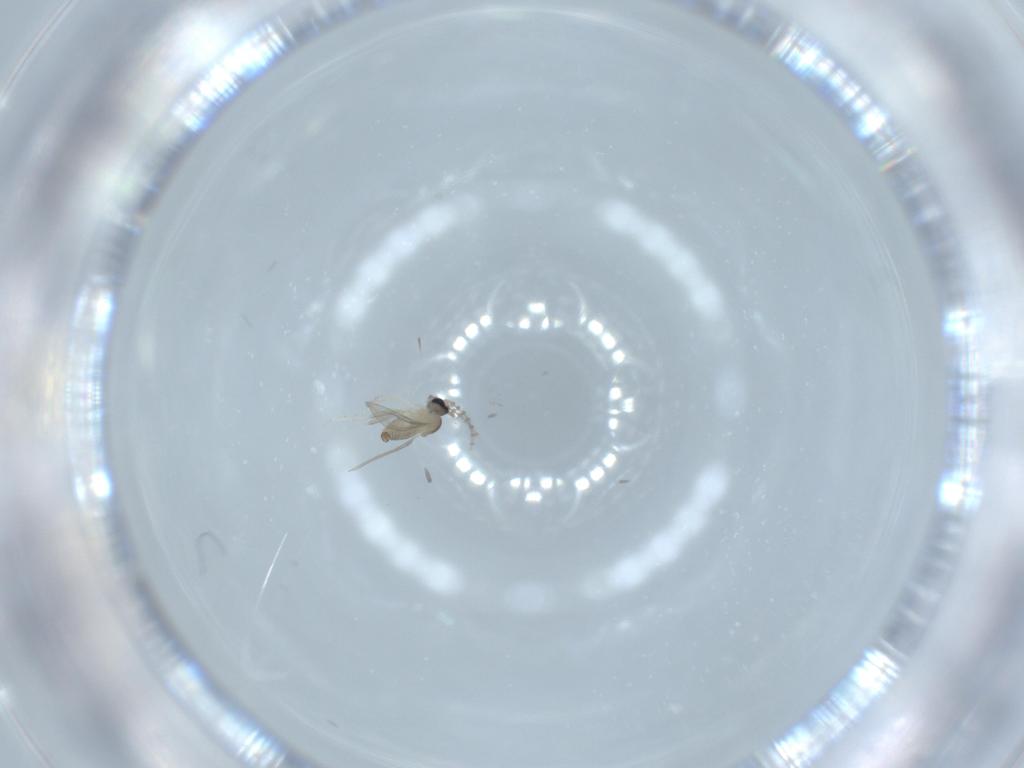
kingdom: Animalia
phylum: Arthropoda
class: Insecta
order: Diptera
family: Cecidomyiidae
